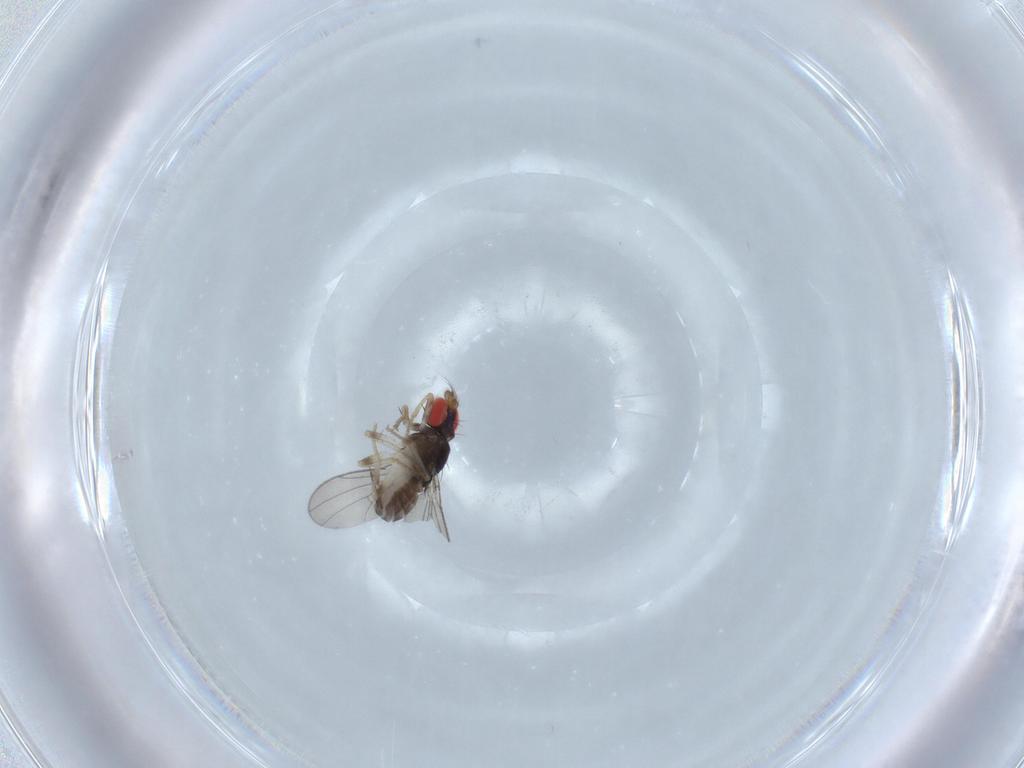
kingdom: Animalia
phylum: Arthropoda
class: Insecta
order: Diptera
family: Drosophilidae
